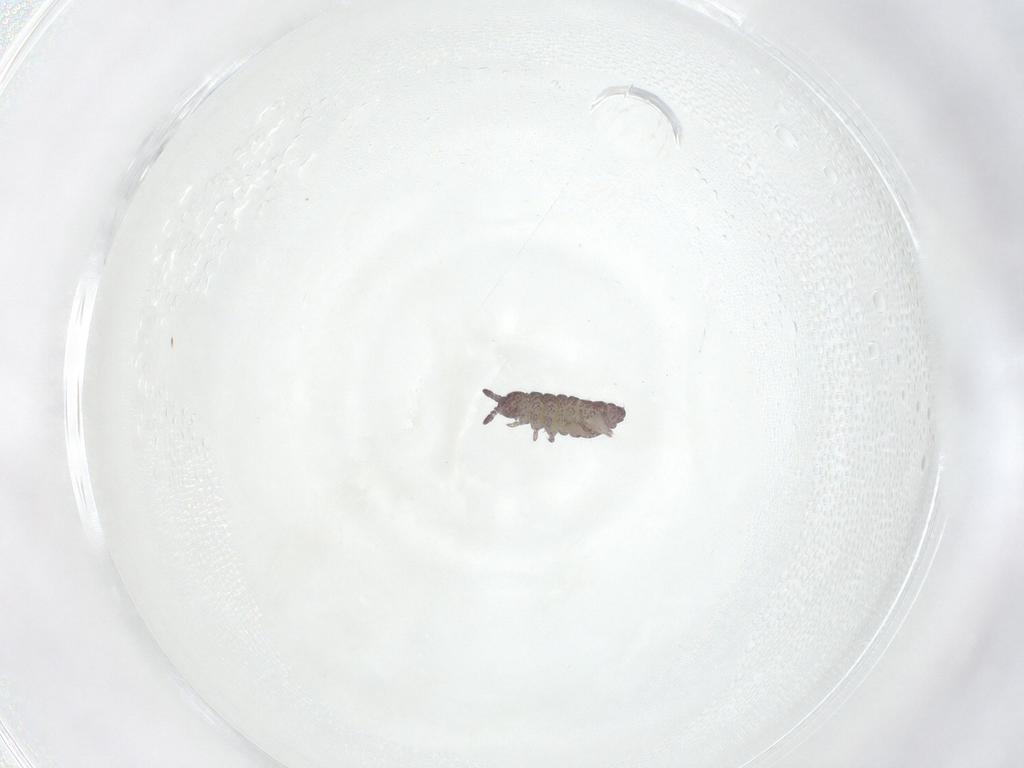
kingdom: Animalia
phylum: Arthropoda
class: Collembola
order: Poduromorpha
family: Hypogastruridae
